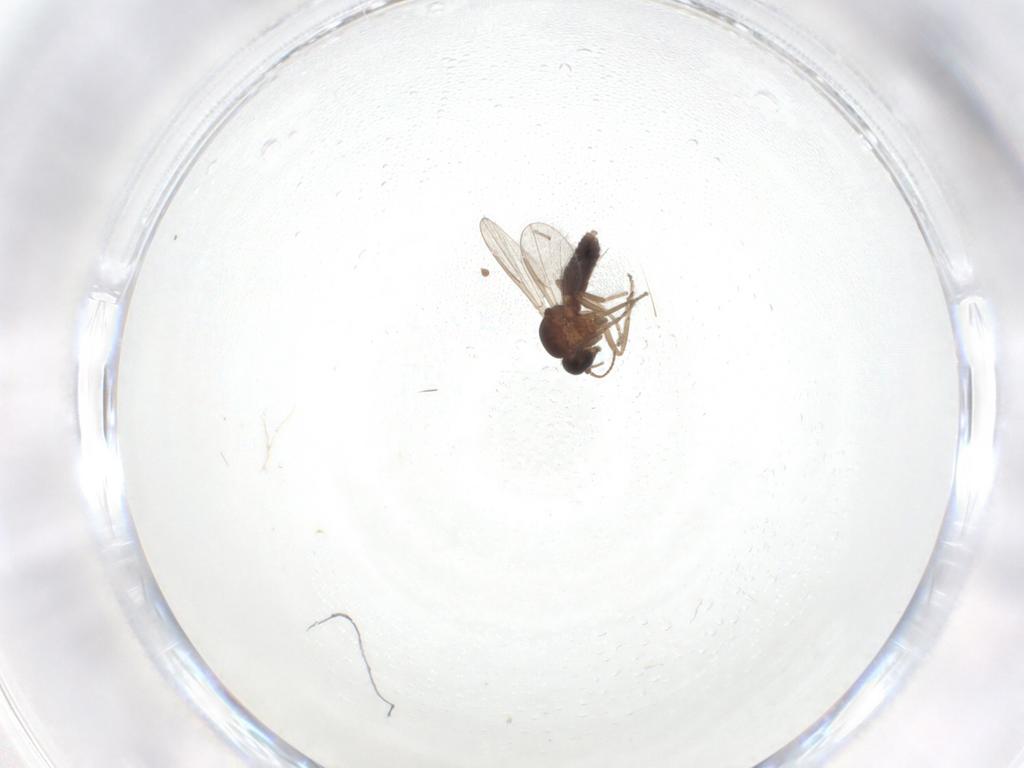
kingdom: Animalia
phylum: Arthropoda
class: Insecta
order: Diptera
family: Ceratopogonidae
